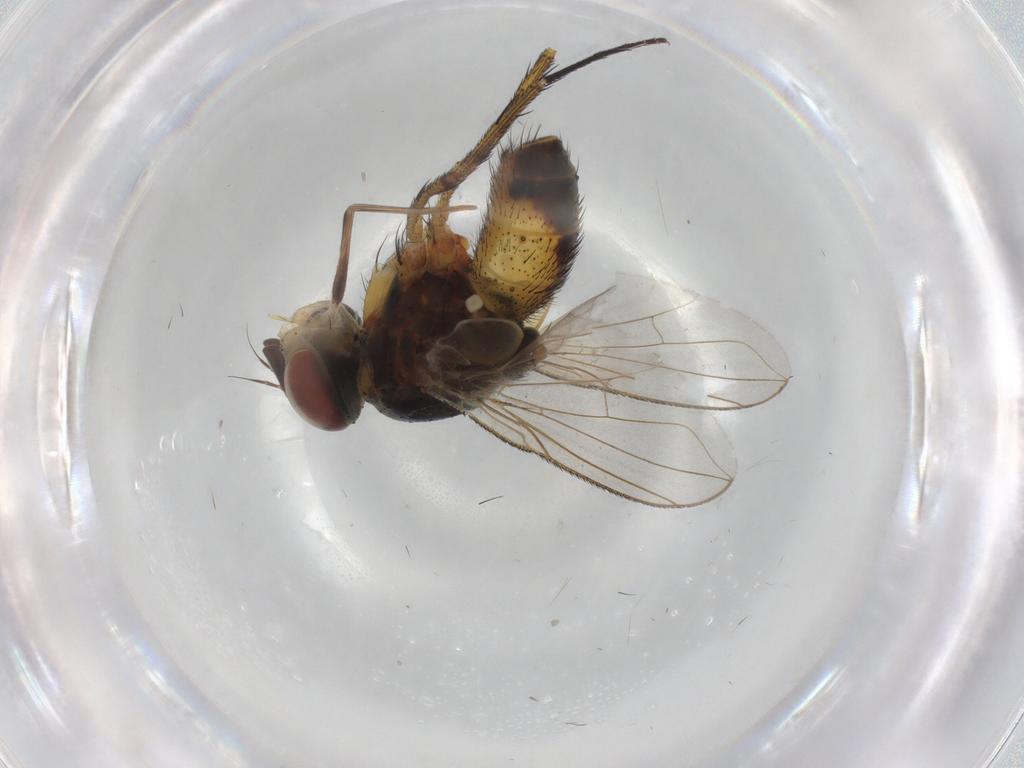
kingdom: Animalia
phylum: Arthropoda
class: Insecta
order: Diptera
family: Tachinidae
